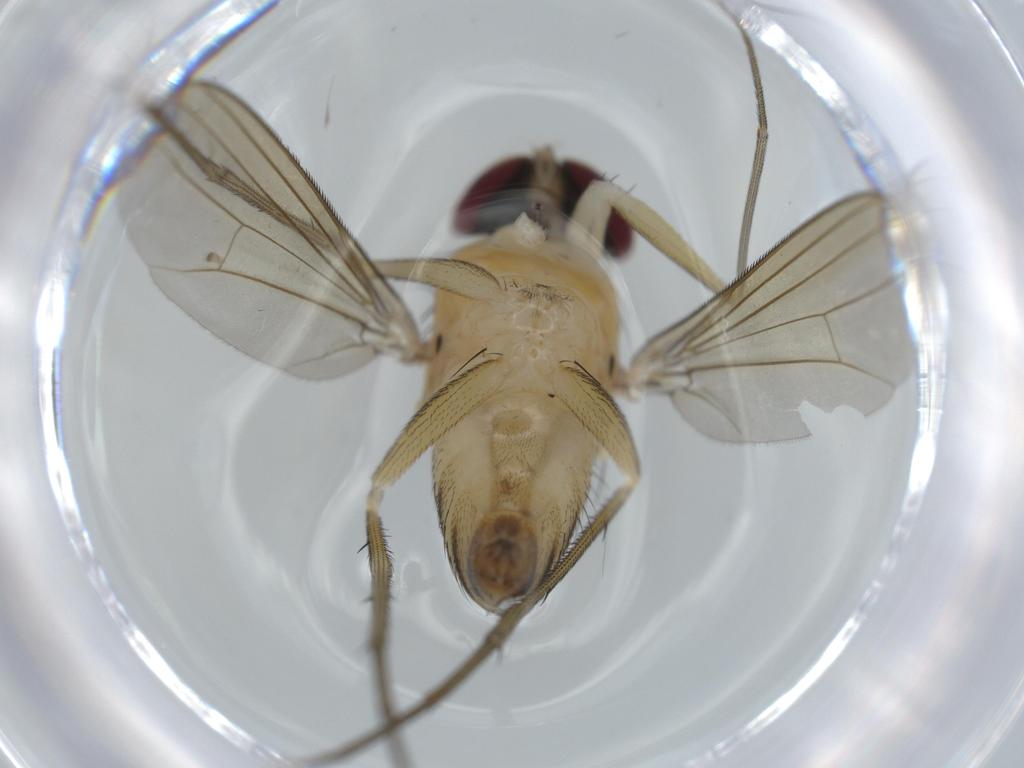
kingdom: Animalia
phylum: Arthropoda
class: Insecta
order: Diptera
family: Dolichopodidae
